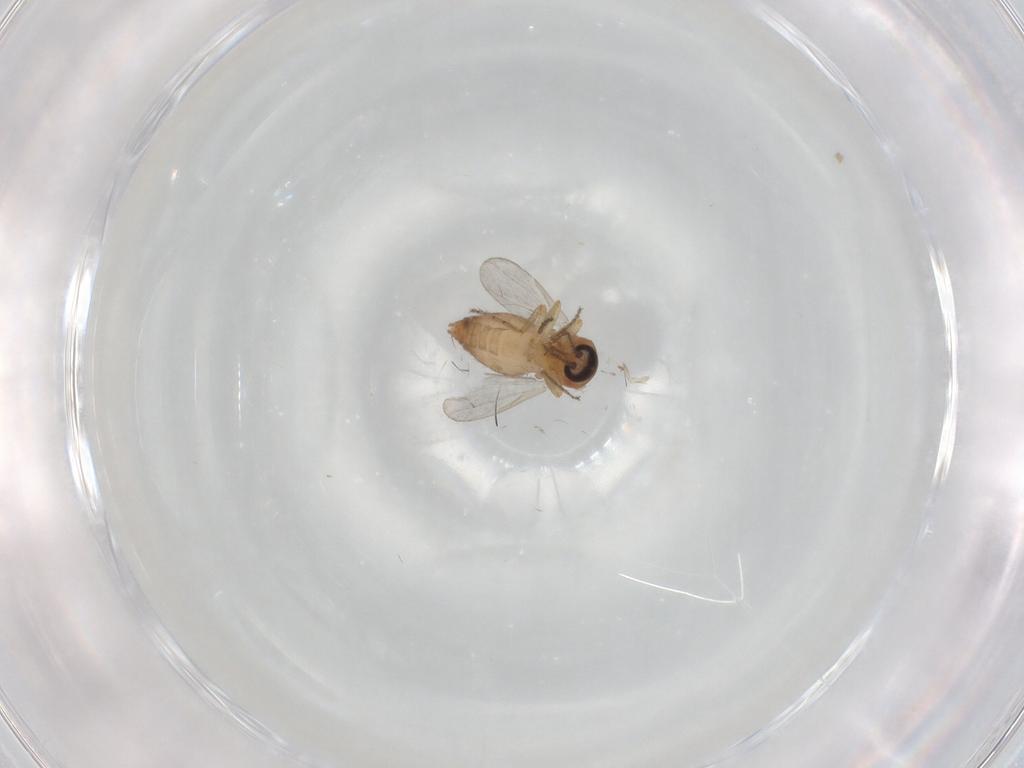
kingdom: Animalia
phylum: Arthropoda
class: Insecta
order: Diptera
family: Ceratopogonidae
